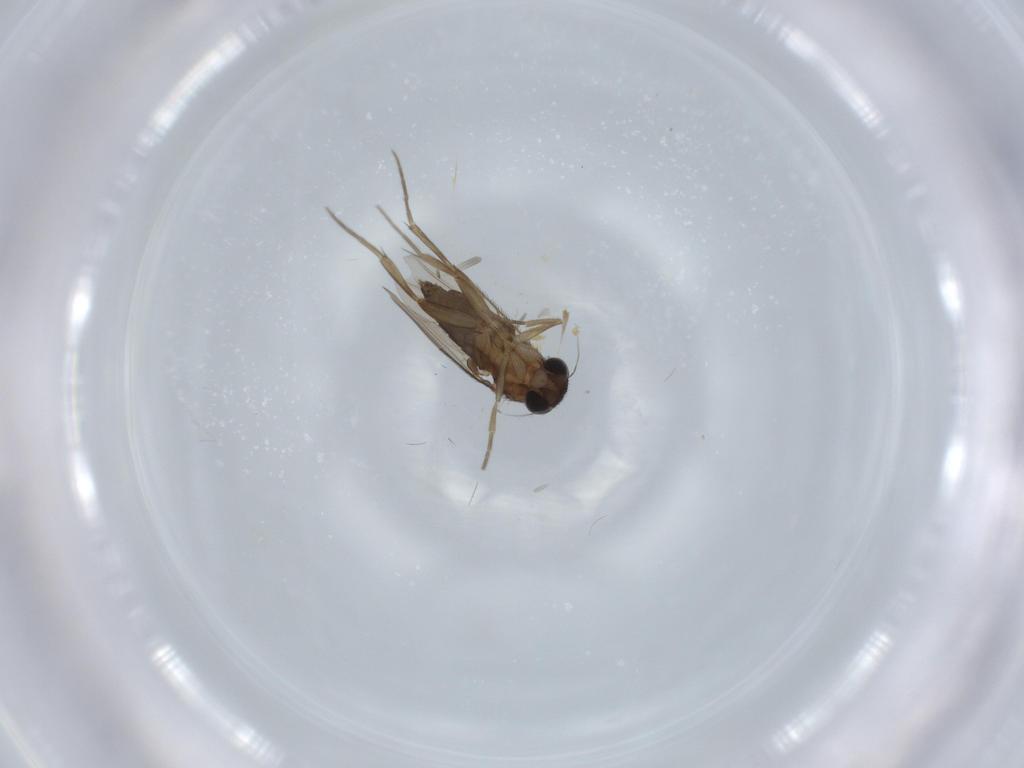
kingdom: Animalia
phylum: Arthropoda
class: Insecta
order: Diptera
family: Phoridae
